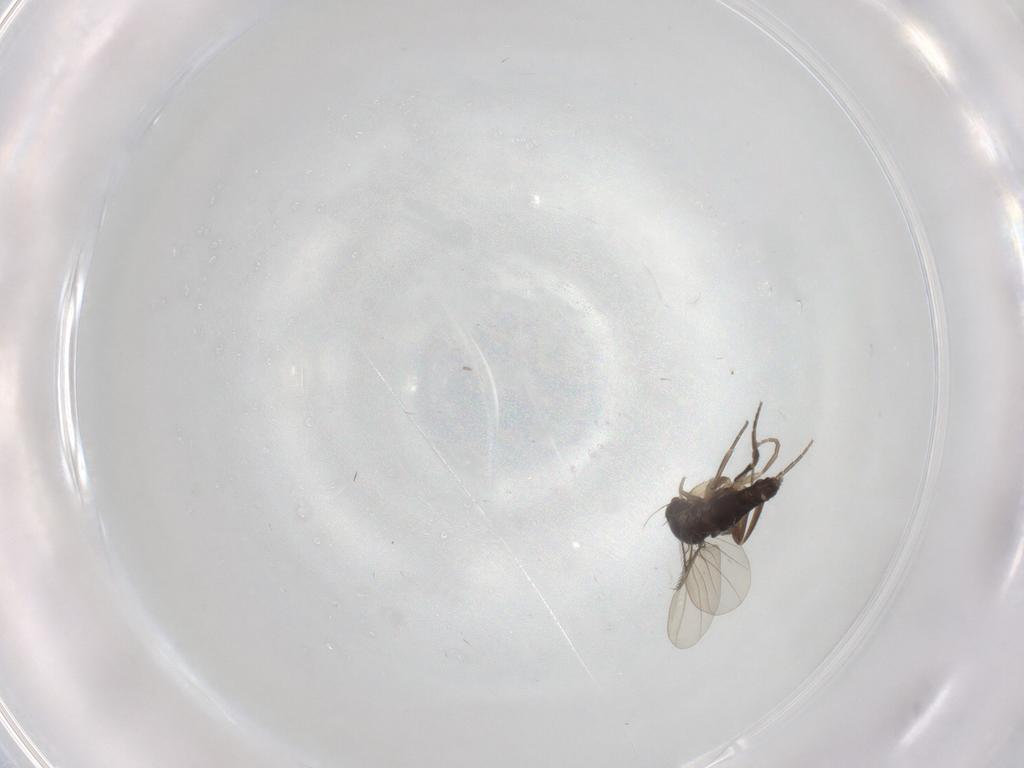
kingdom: Animalia
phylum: Arthropoda
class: Insecta
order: Diptera
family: Phoridae
